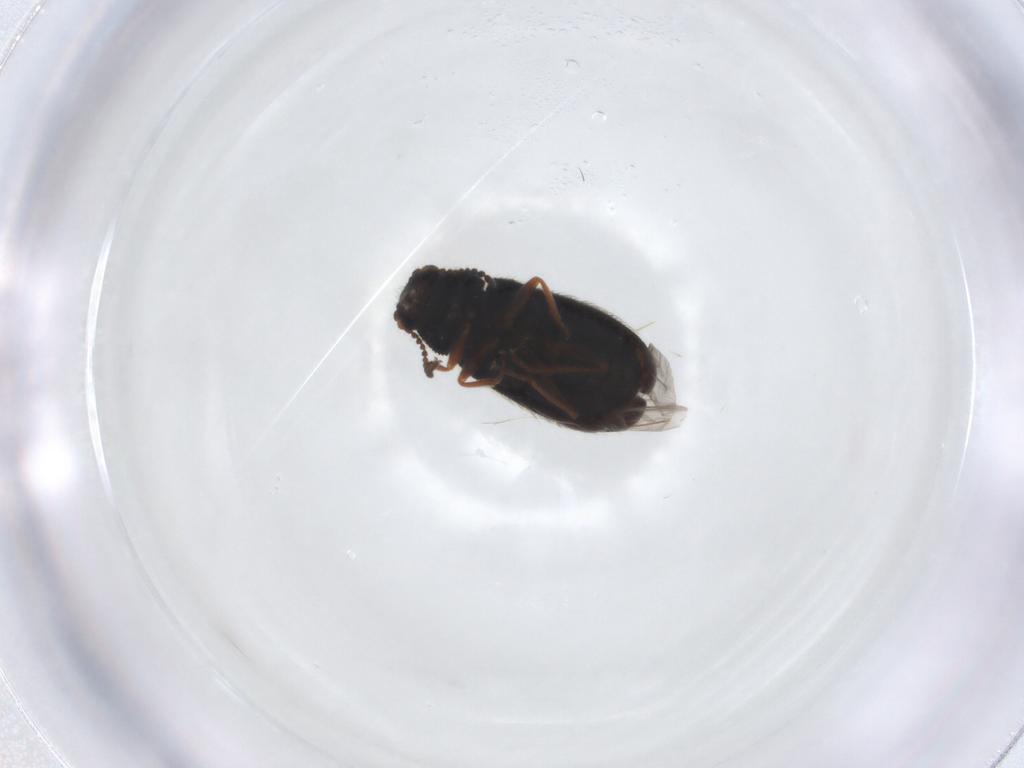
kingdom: Animalia
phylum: Arthropoda
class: Insecta
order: Coleoptera
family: Melyridae
